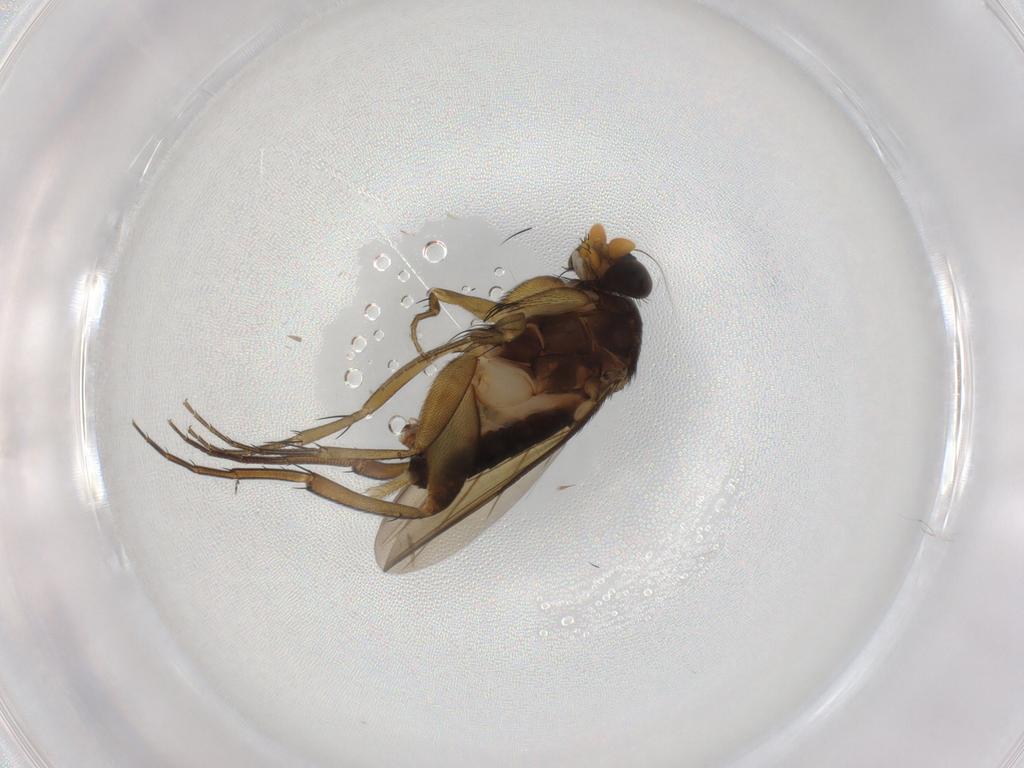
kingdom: Animalia
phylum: Arthropoda
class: Insecta
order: Diptera
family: Phoridae
